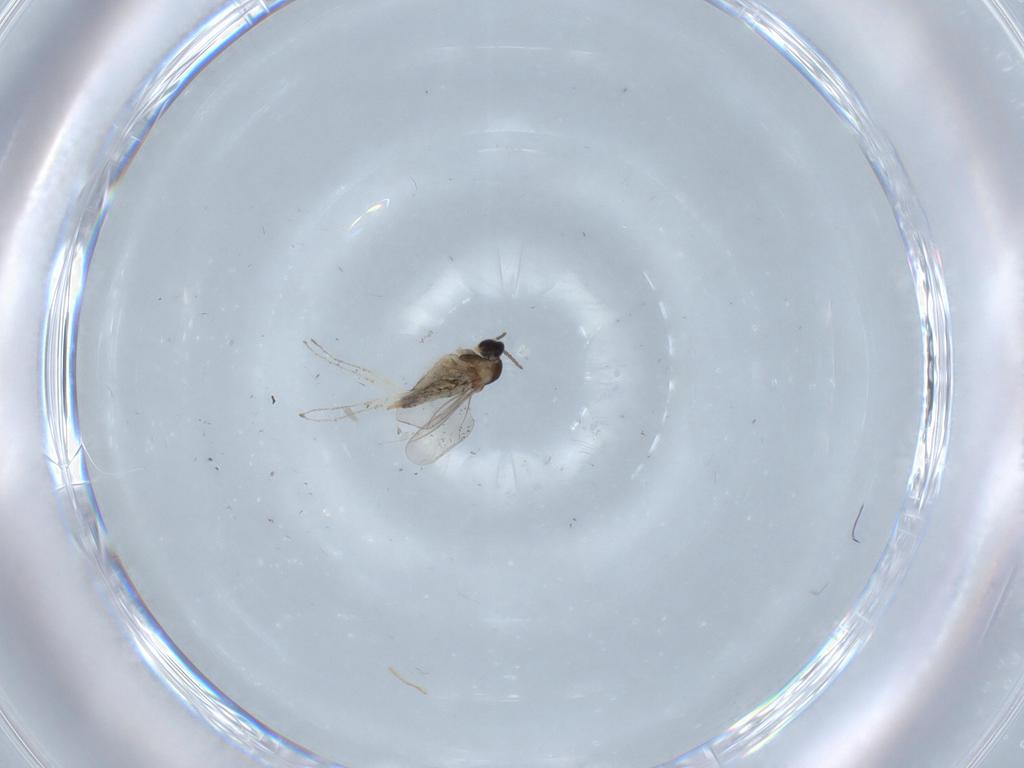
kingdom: Animalia
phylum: Arthropoda
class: Insecta
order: Diptera
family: Cecidomyiidae
